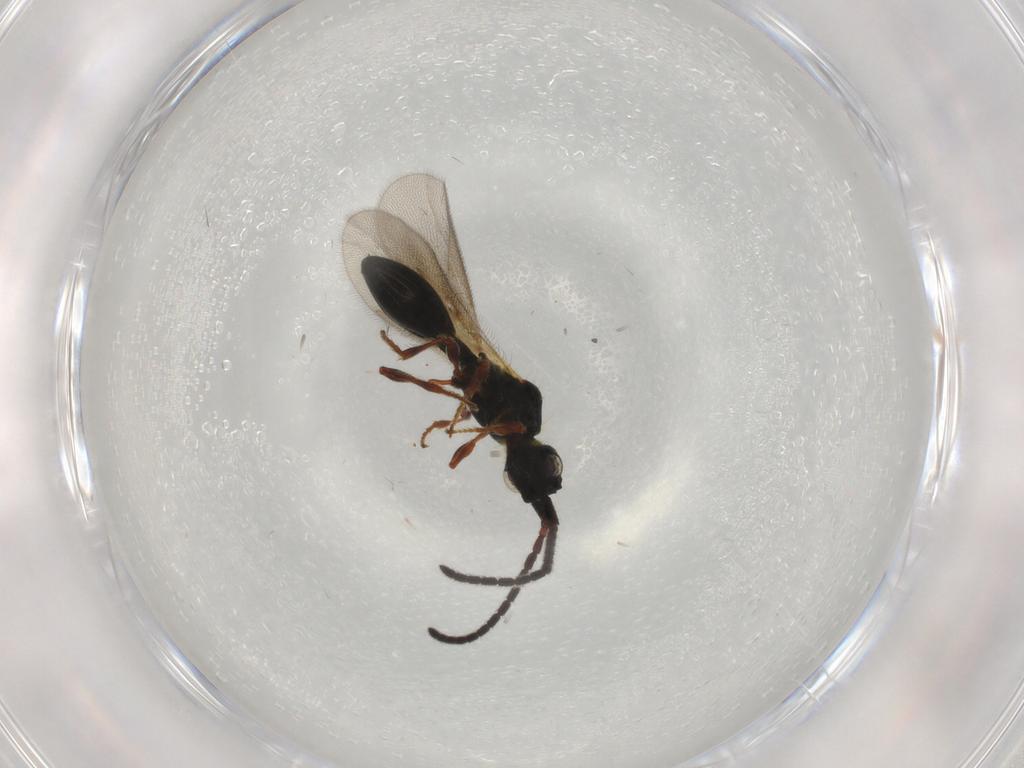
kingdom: Animalia
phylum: Arthropoda
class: Insecta
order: Hymenoptera
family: Diapriidae
